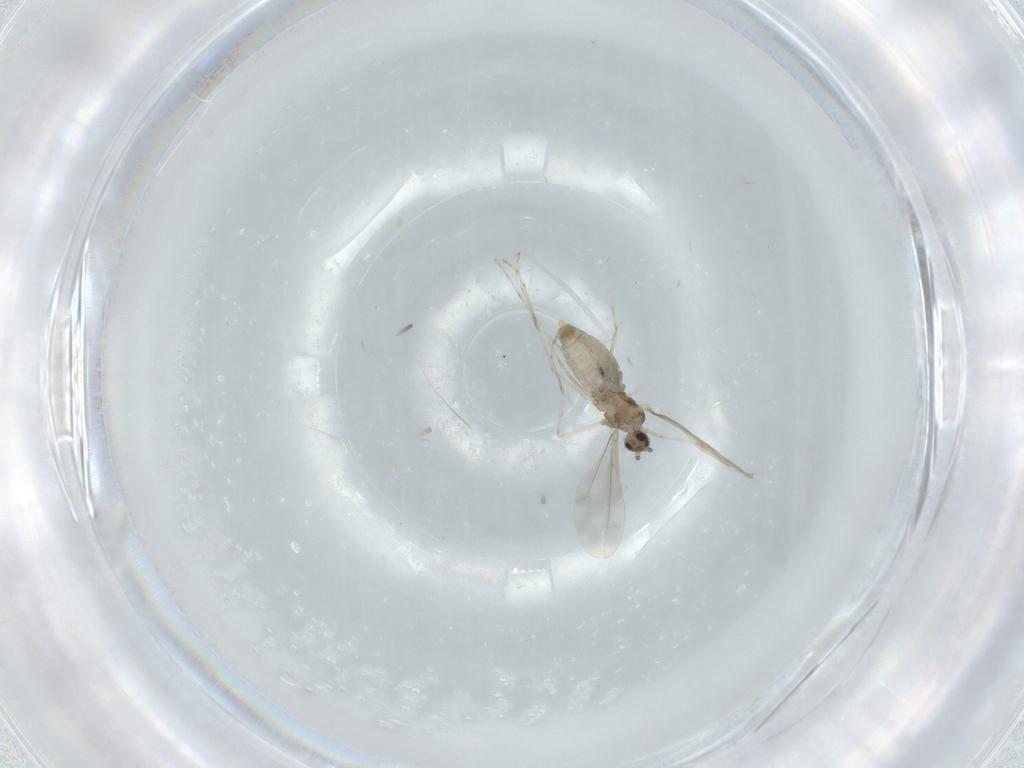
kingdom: Animalia
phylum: Arthropoda
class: Insecta
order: Diptera
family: Cecidomyiidae
